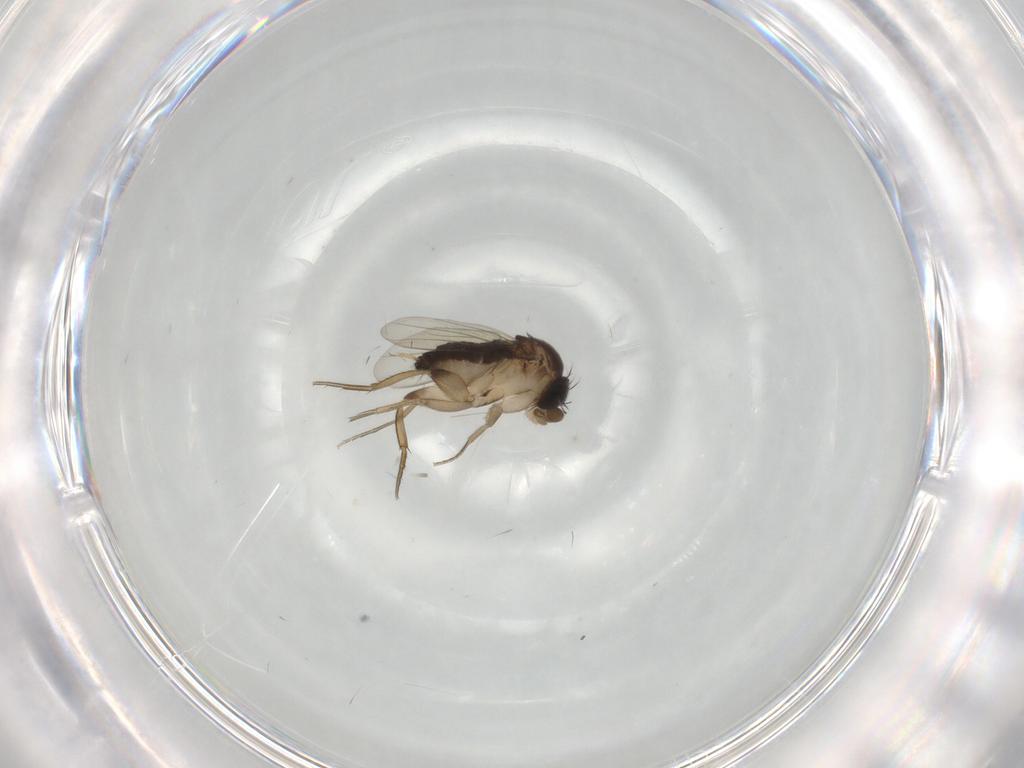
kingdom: Animalia
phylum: Arthropoda
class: Insecta
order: Diptera
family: Phoridae
